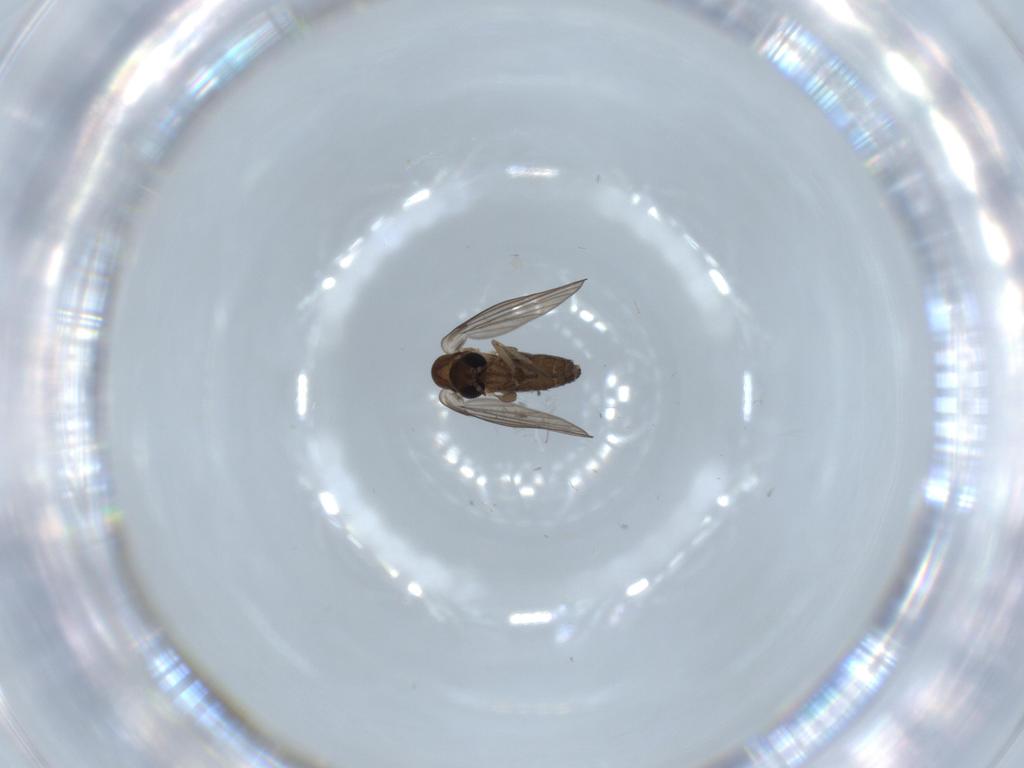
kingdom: Animalia
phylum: Arthropoda
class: Insecta
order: Diptera
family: Psychodidae
